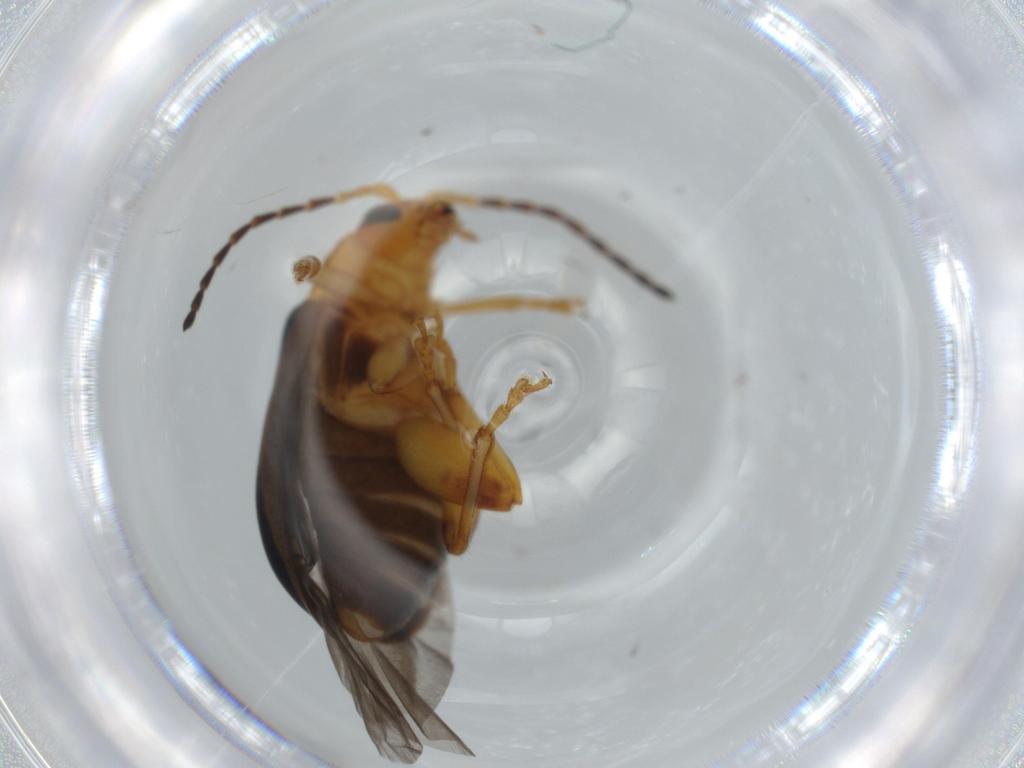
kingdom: Animalia
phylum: Arthropoda
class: Insecta
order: Coleoptera
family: Chrysomelidae
